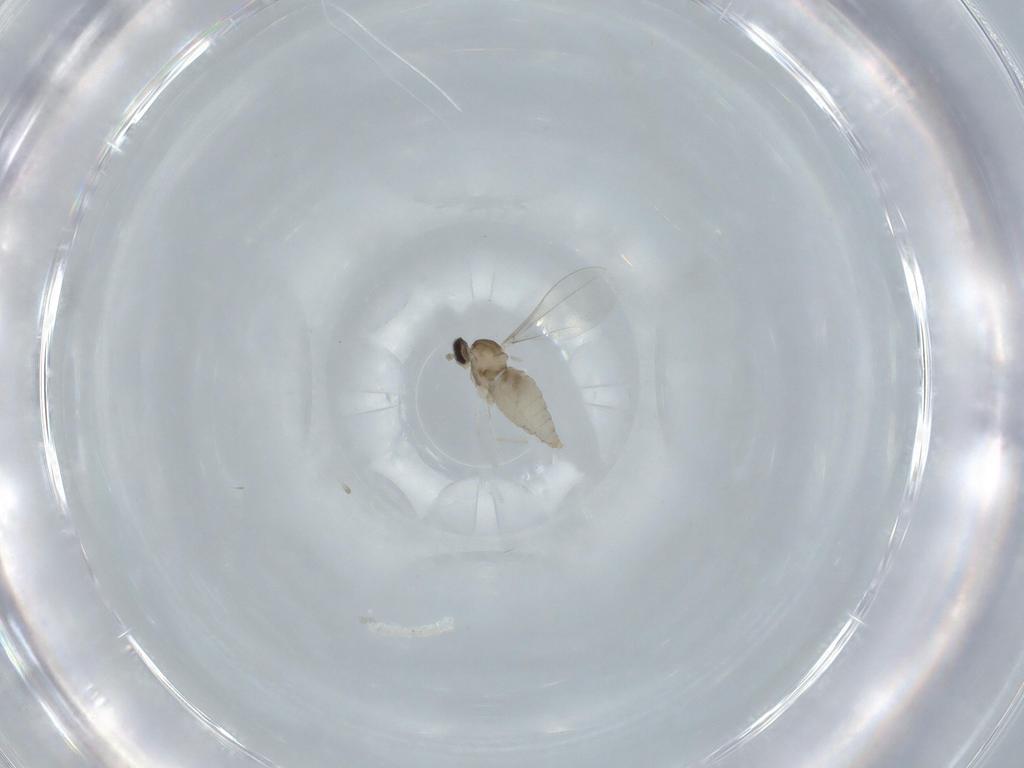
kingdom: Animalia
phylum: Arthropoda
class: Insecta
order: Diptera
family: Cecidomyiidae
